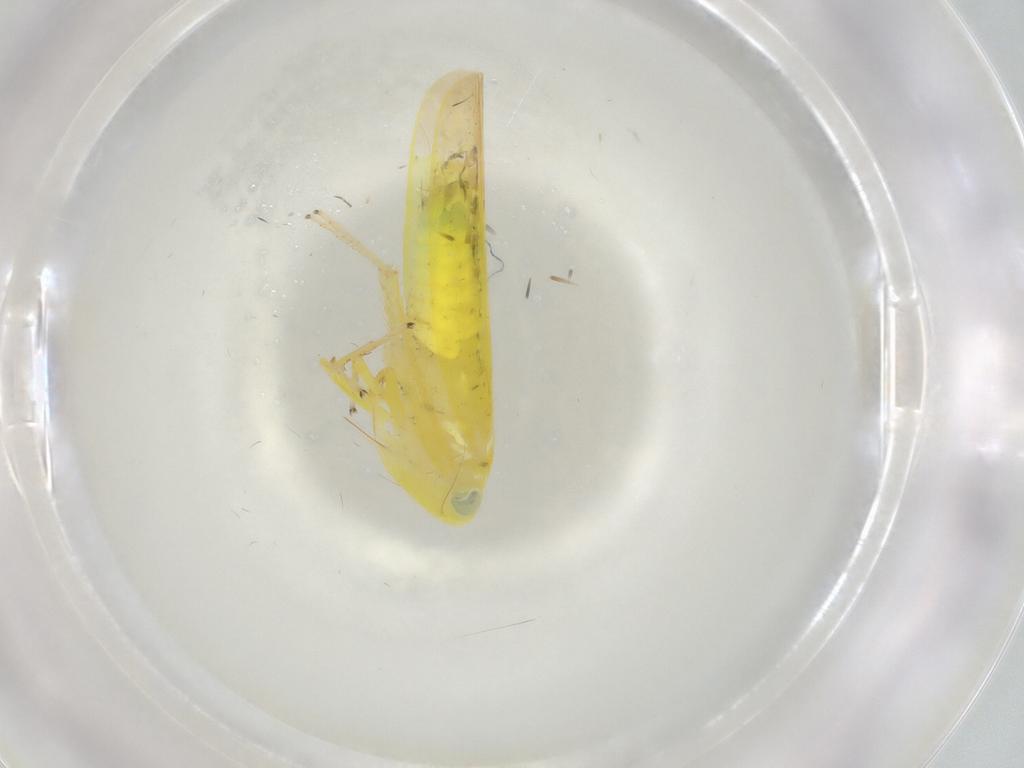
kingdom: Animalia
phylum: Arthropoda
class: Insecta
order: Hemiptera
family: Cicadellidae
